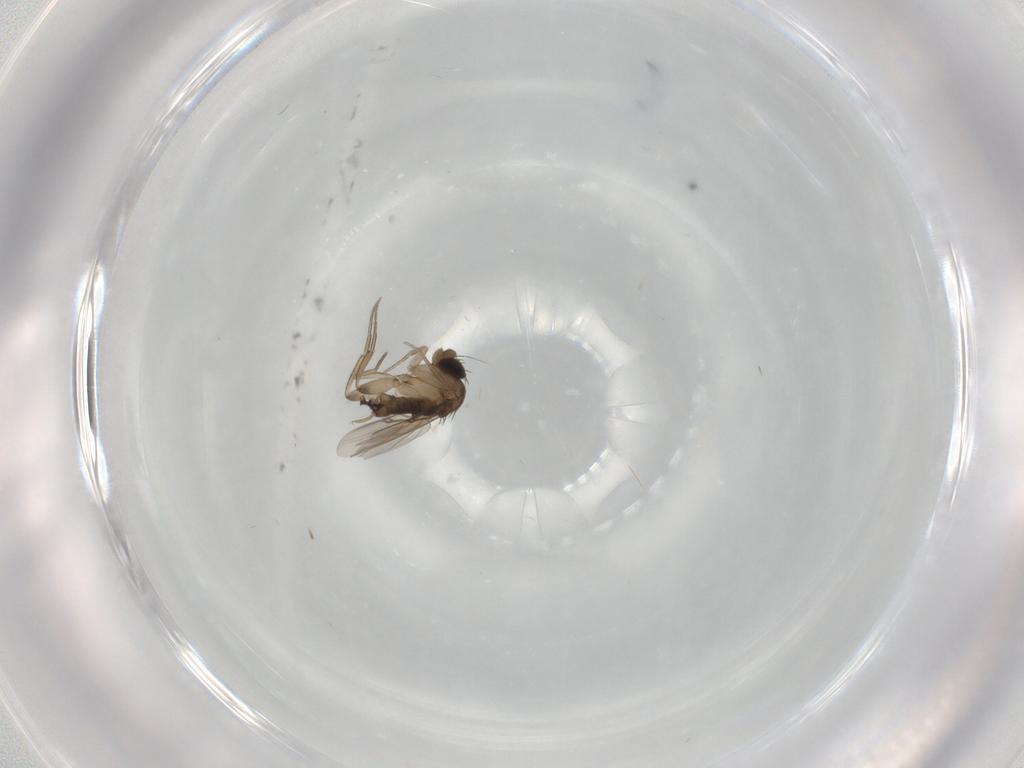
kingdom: Animalia
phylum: Arthropoda
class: Insecta
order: Diptera
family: Phoridae
